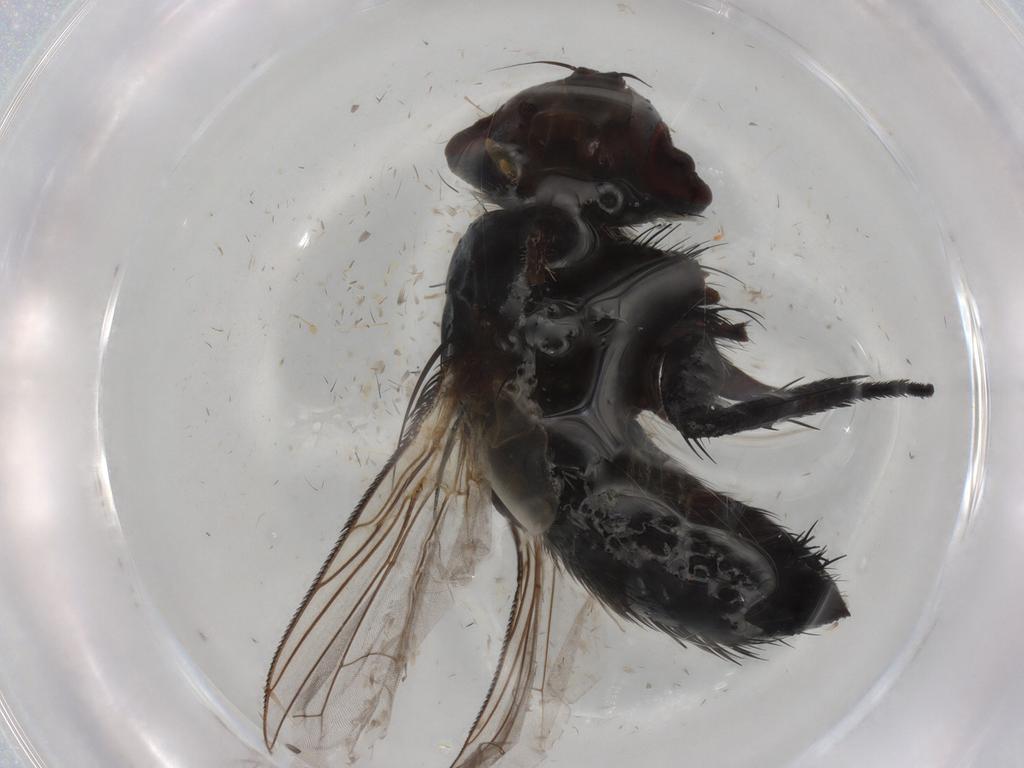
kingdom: Animalia
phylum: Arthropoda
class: Insecta
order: Diptera
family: Tachinidae
